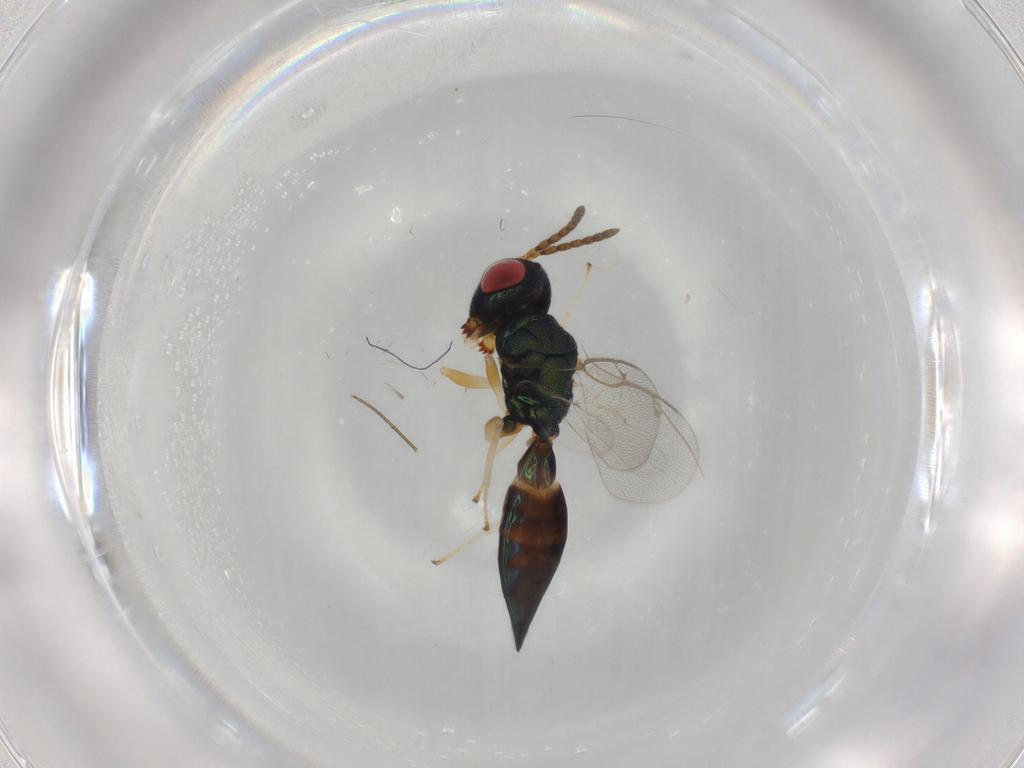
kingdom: Animalia
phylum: Arthropoda
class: Insecta
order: Hymenoptera
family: Pteromalidae
